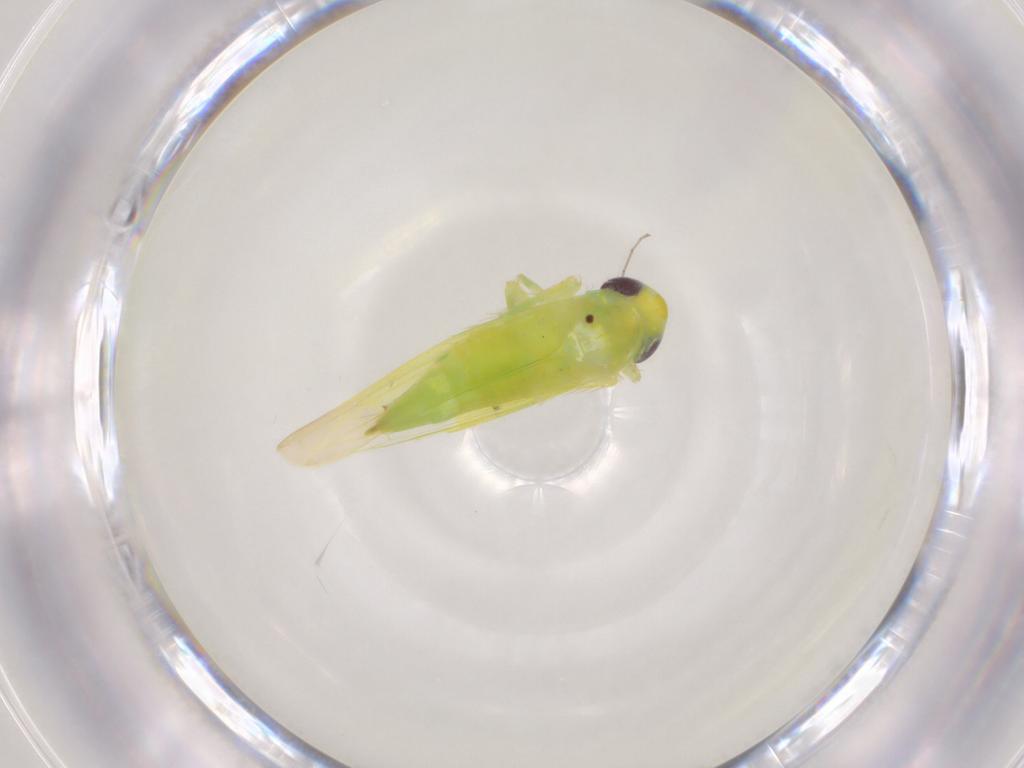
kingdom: Animalia
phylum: Arthropoda
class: Insecta
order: Hemiptera
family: Cicadellidae
